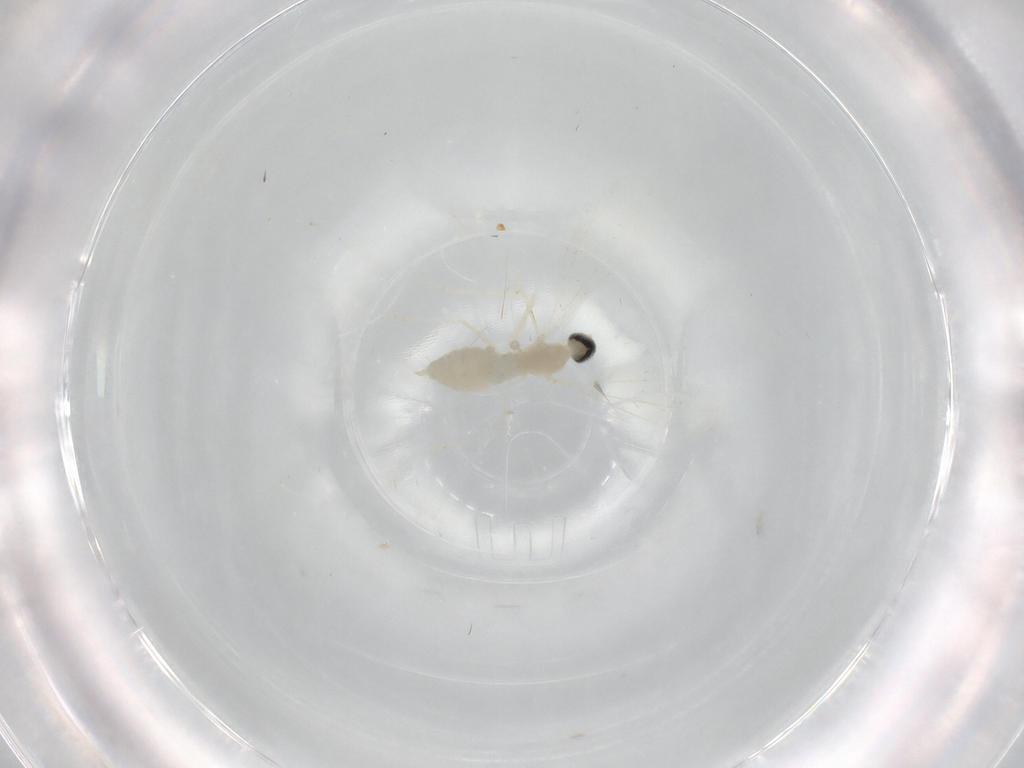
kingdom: Animalia
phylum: Arthropoda
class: Insecta
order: Diptera
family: Cecidomyiidae
